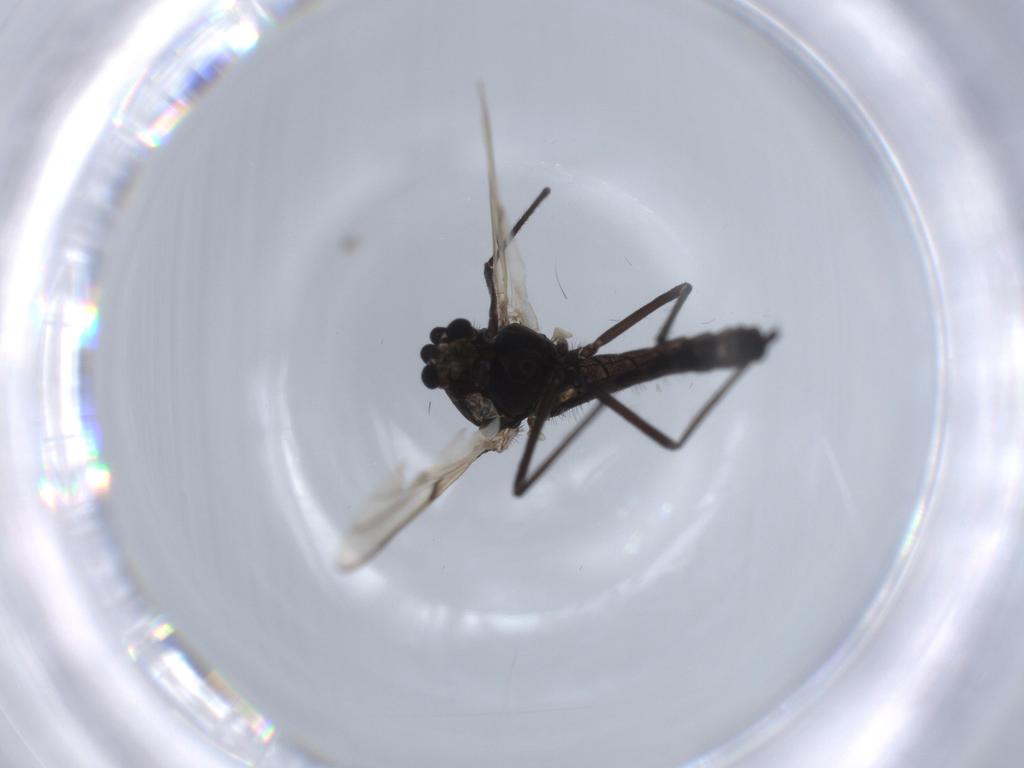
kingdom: Animalia
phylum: Arthropoda
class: Insecta
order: Diptera
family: Chironomidae
